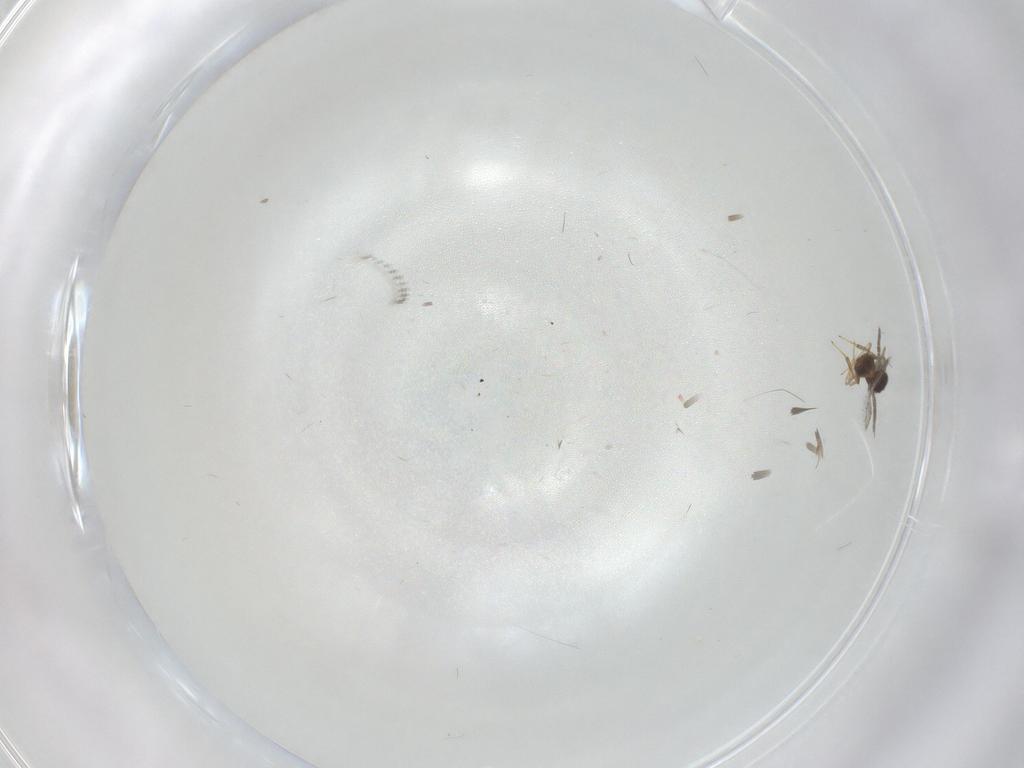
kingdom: Animalia
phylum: Arthropoda
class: Insecta
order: Hymenoptera
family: Pteromalidae
